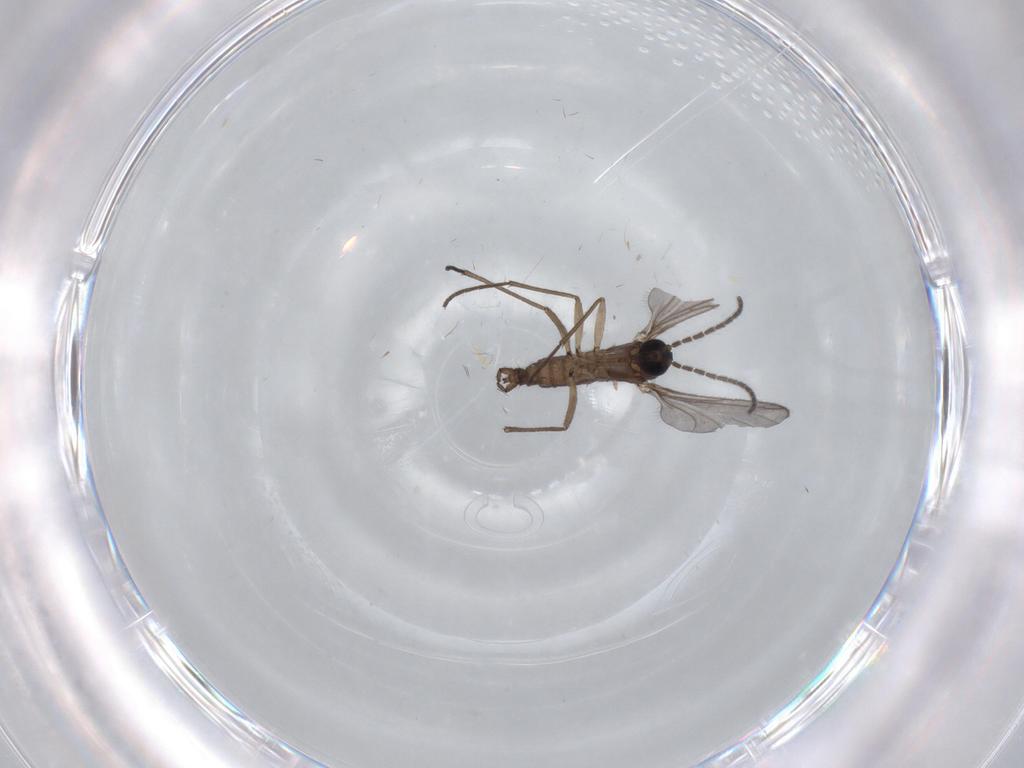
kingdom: Animalia
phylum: Arthropoda
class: Insecta
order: Diptera
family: Sciaridae
